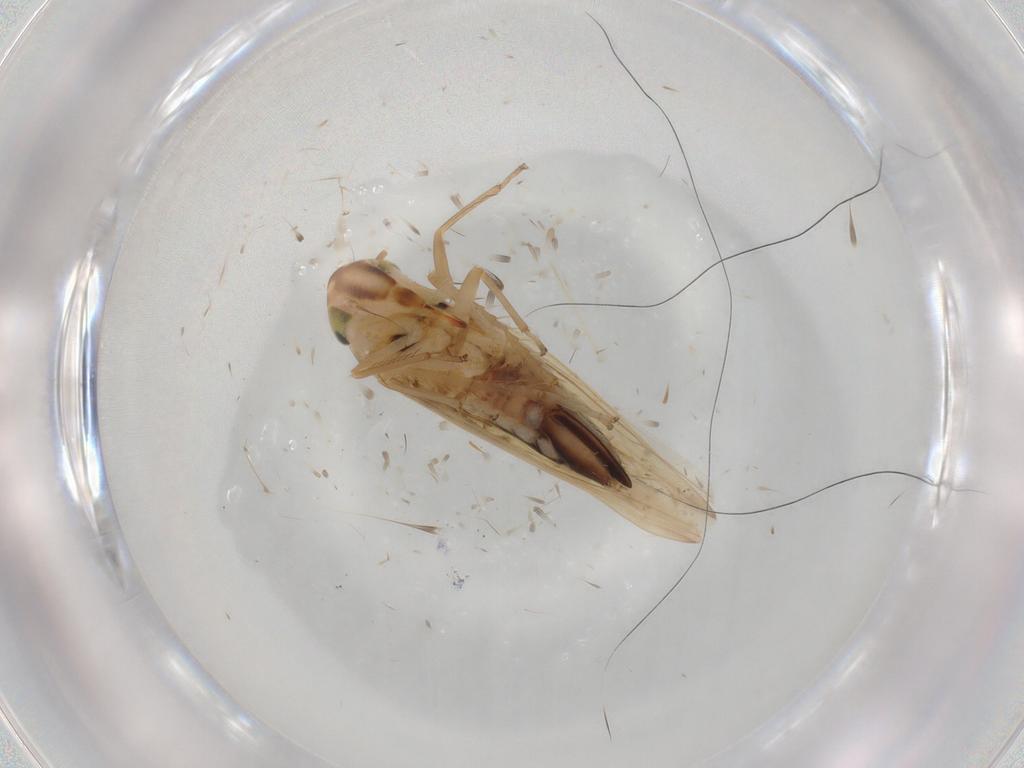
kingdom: Animalia
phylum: Arthropoda
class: Insecta
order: Hemiptera
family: Cicadellidae
